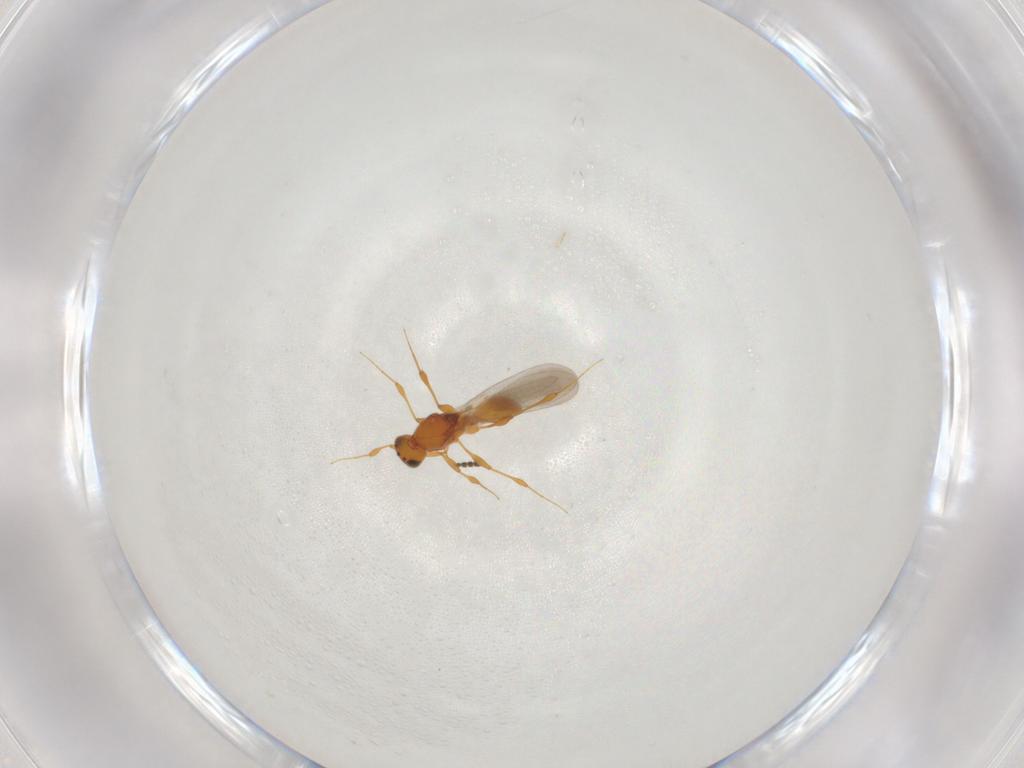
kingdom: Animalia
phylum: Arthropoda
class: Insecta
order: Hymenoptera
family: Platygastridae
